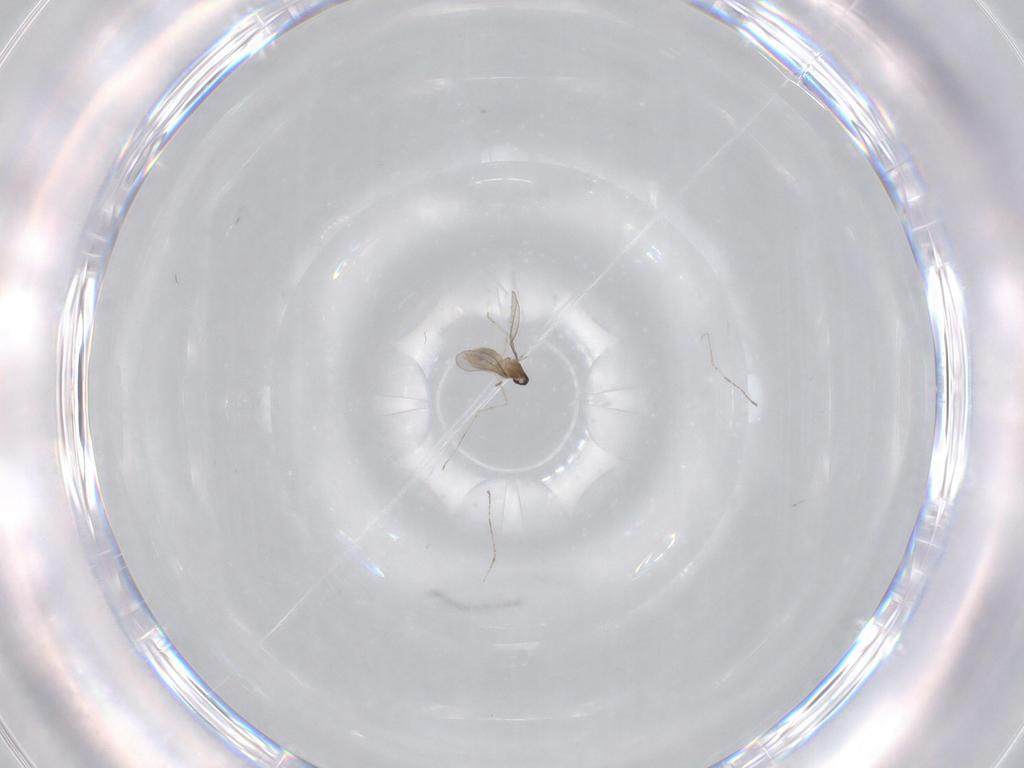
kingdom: Animalia
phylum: Arthropoda
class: Insecta
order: Diptera
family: Cecidomyiidae
